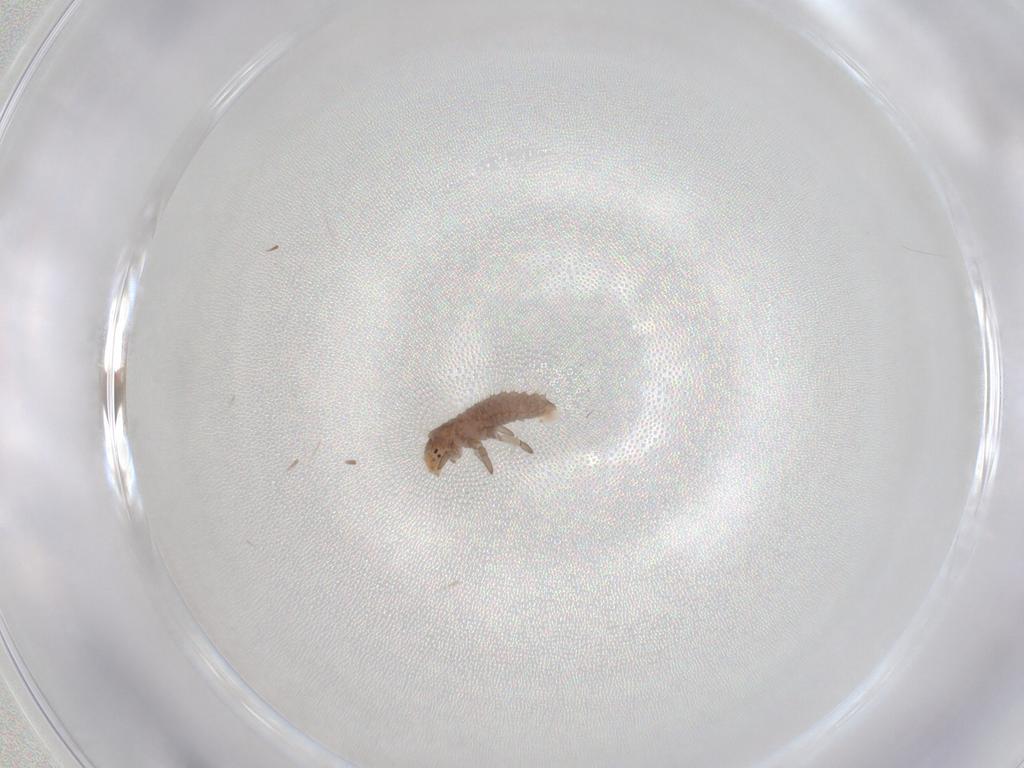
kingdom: Animalia
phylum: Arthropoda
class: Insecta
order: Coleoptera
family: Coccinellidae
